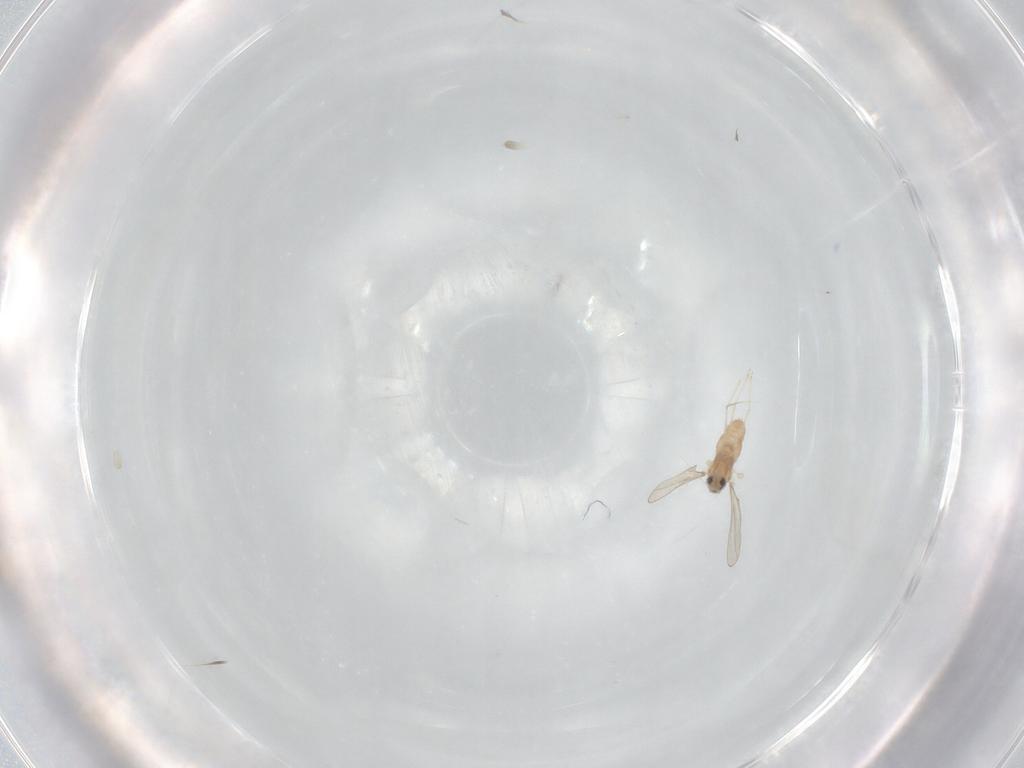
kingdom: Animalia
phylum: Arthropoda
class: Insecta
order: Diptera
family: Cecidomyiidae
